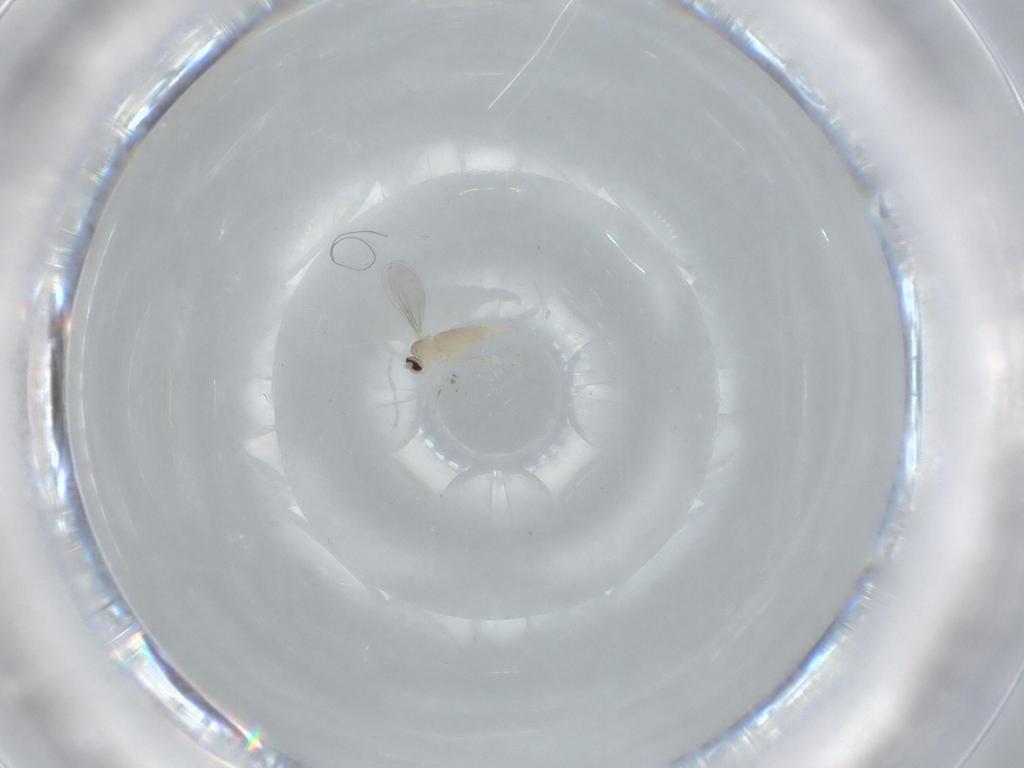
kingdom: Animalia
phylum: Arthropoda
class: Insecta
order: Diptera
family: Cecidomyiidae
